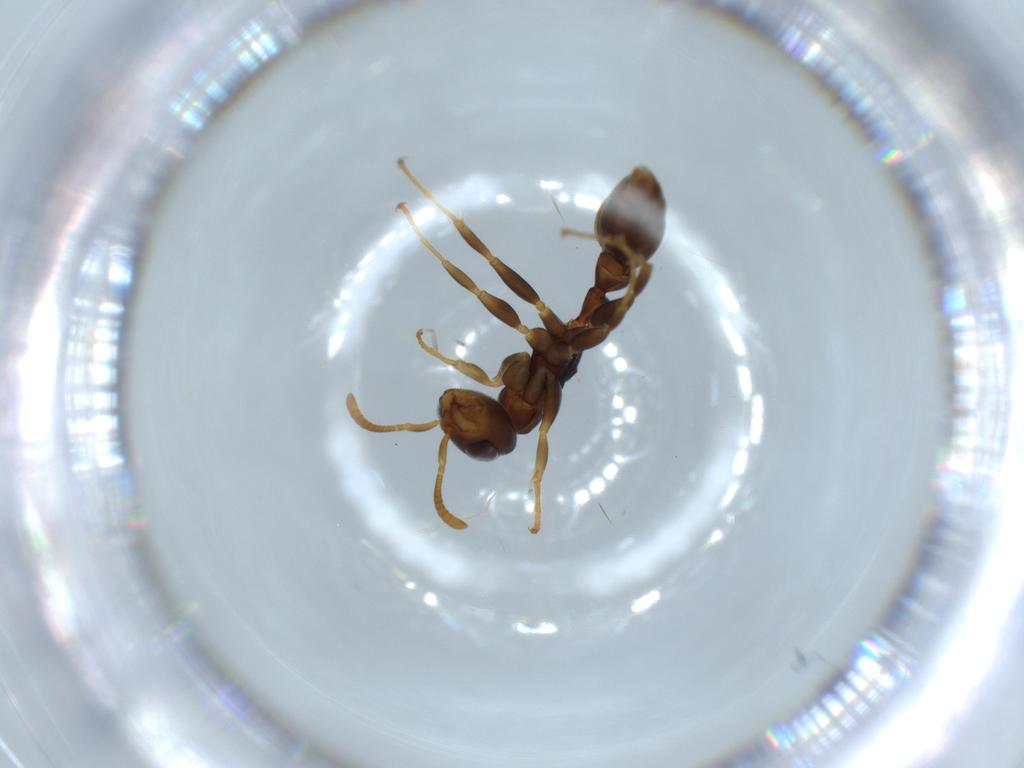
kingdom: Animalia
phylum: Arthropoda
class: Insecta
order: Hymenoptera
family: Formicidae
